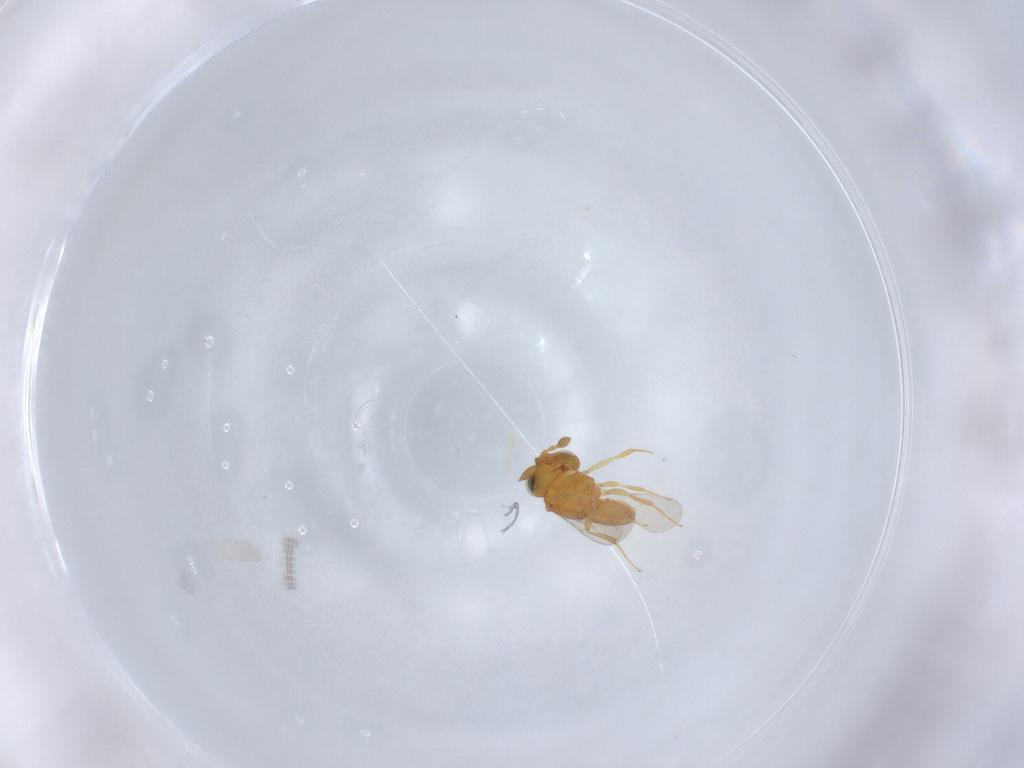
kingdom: Animalia
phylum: Arthropoda
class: Insecta
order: Hymenoptera
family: Scelionidae
